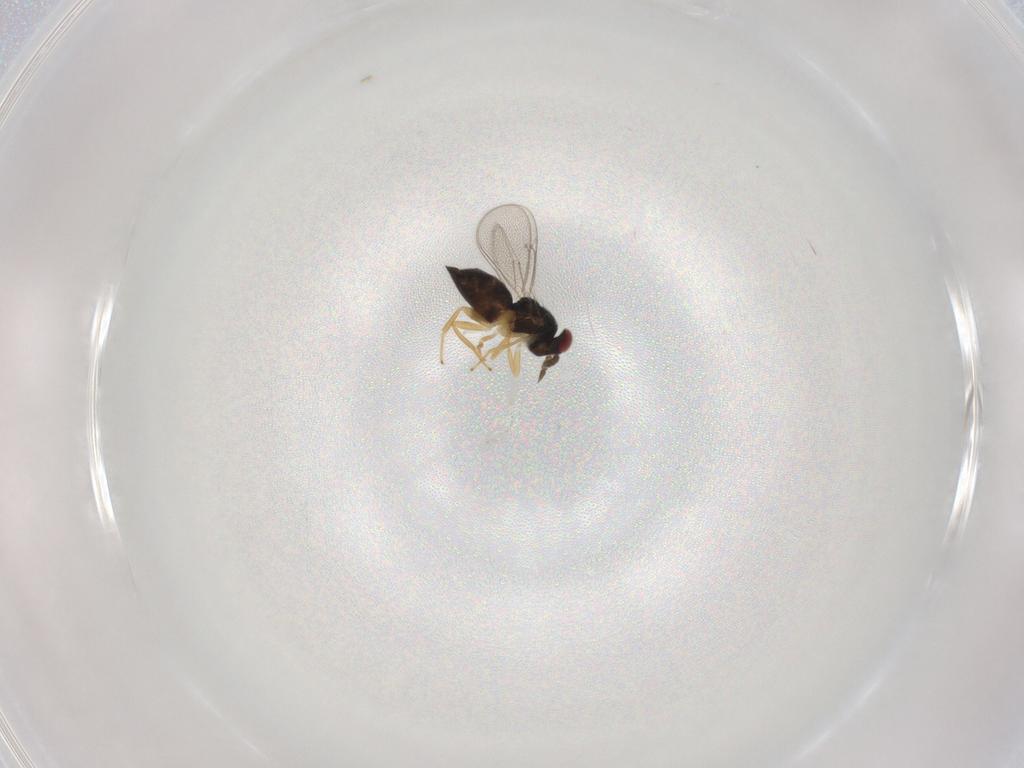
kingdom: Animalia
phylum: Arthropoda
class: Insecta
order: Hymenoptera
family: Eulophidae
